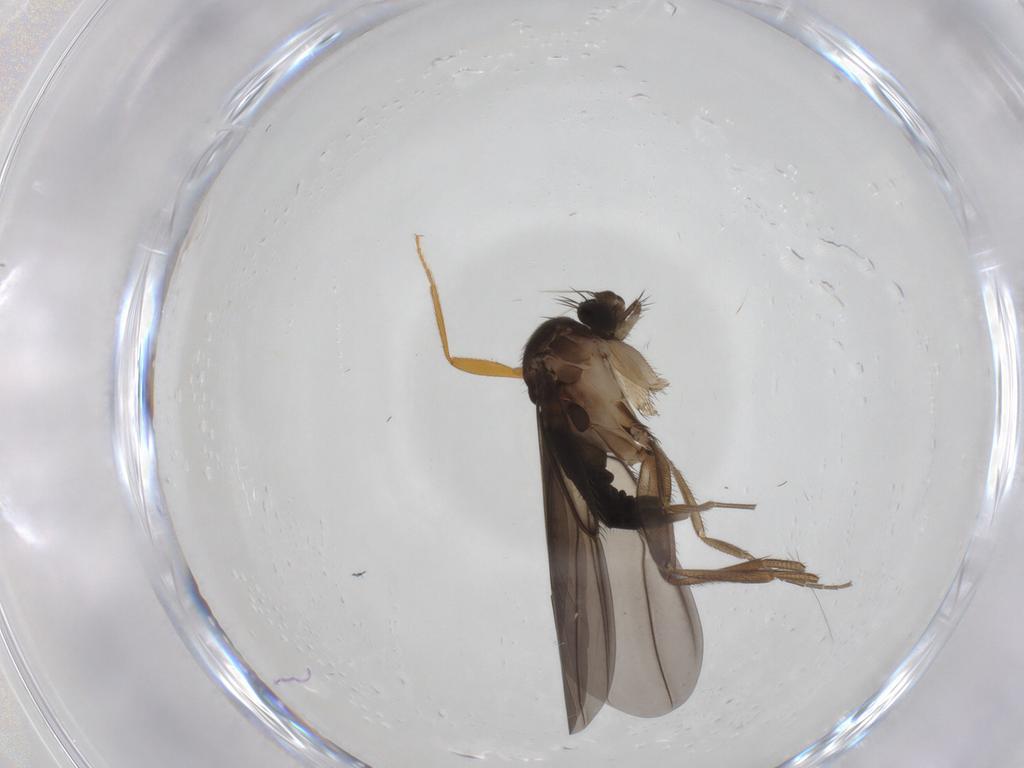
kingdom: Animalia
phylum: Arthropoda
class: Insecta
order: Diptera
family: Phoridae
